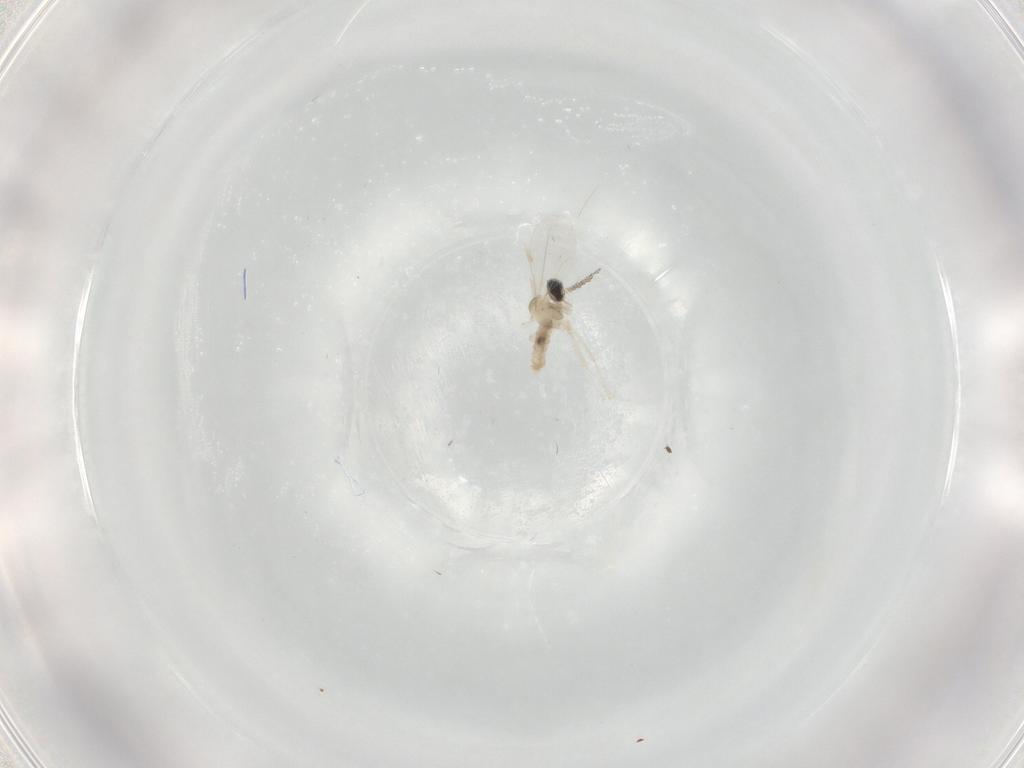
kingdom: Animalia
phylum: Arthropoda
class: Insecta
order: Diptera
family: Cecidomyiidae
